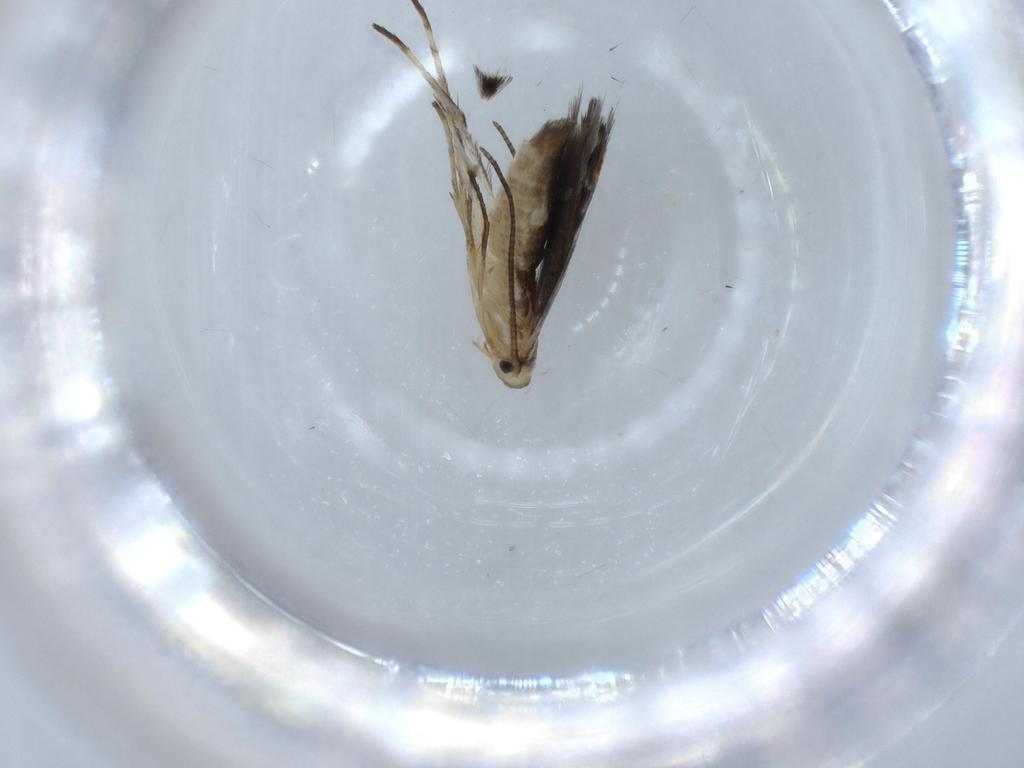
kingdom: Animalia
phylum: Arthropoda
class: Insecta
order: Lepidoptera
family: Nepticulidae
